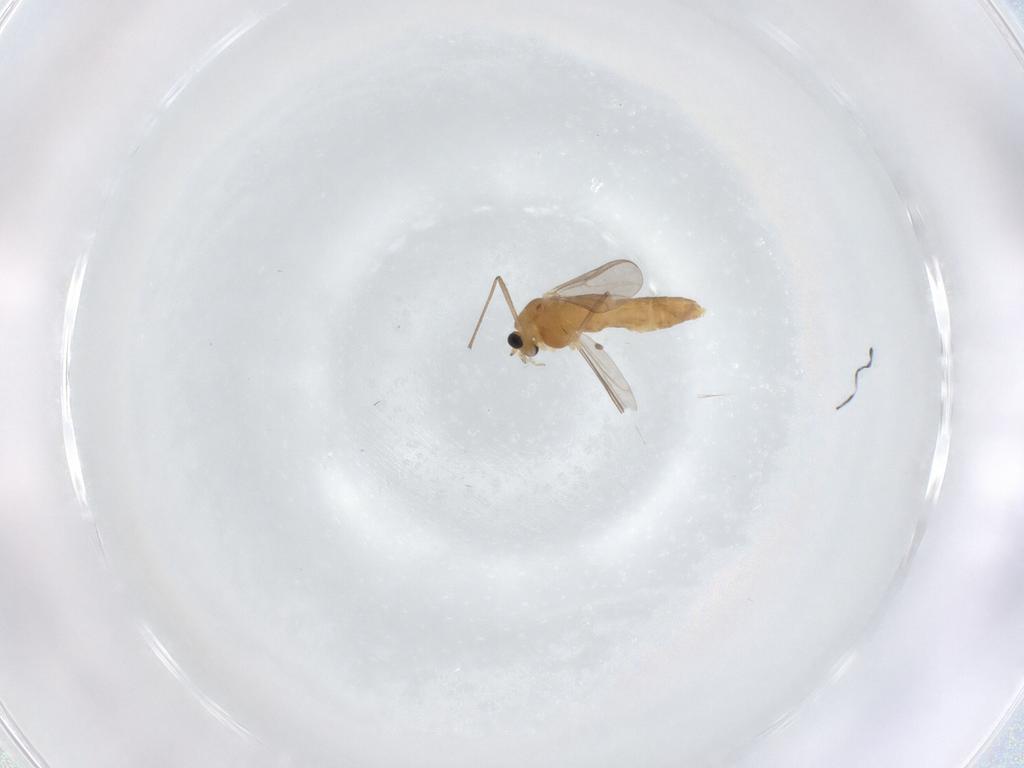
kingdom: Animalia
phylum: Arthropoda
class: Insecta
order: Diptera
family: Chironomidae
